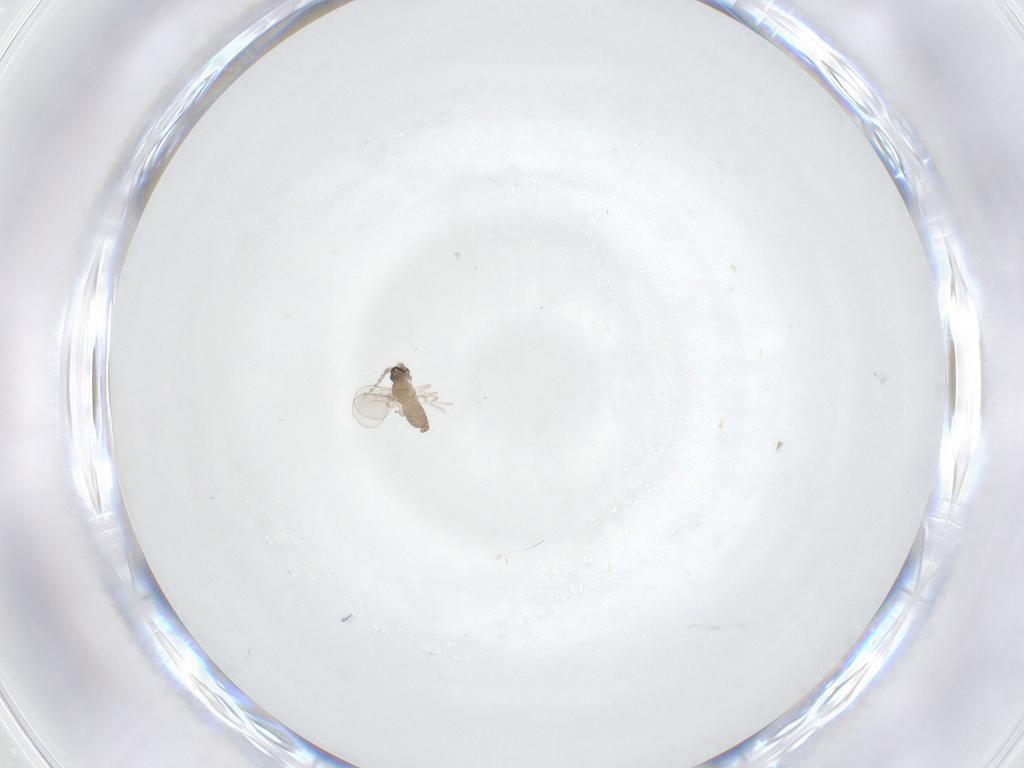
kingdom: Animalia
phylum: Arthropoda
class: Insecta
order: Diptera
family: Cecidomyiidae
